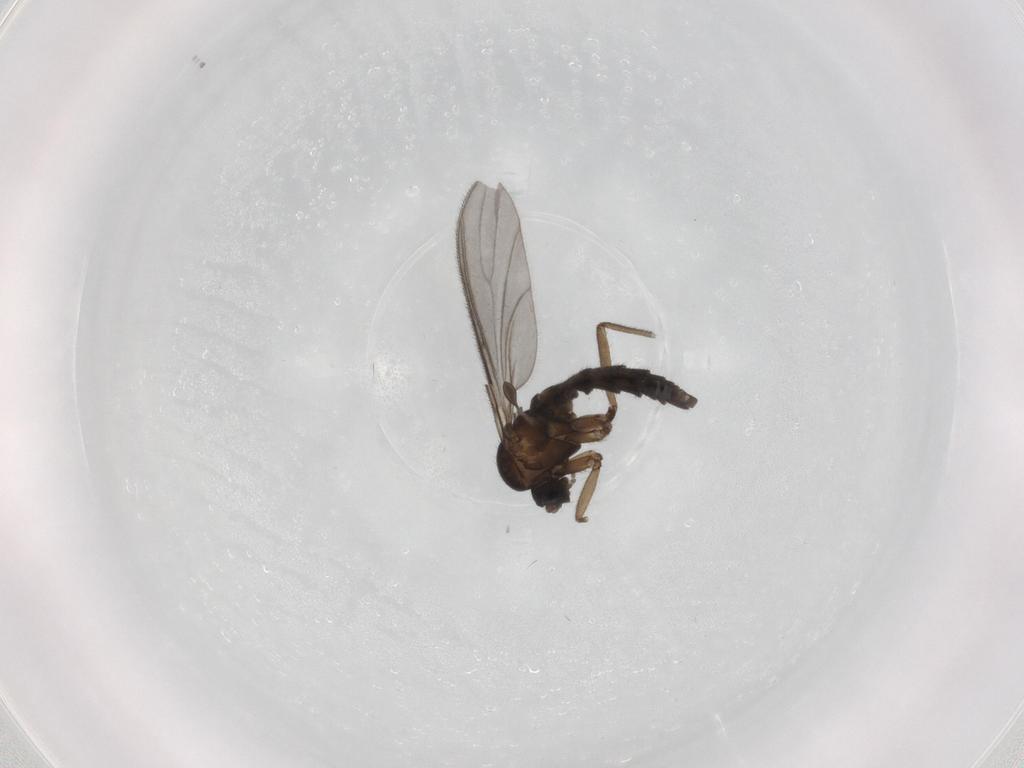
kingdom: Animalia
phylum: Arthropoda
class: Insecta
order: Diptera
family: Sciaridae
